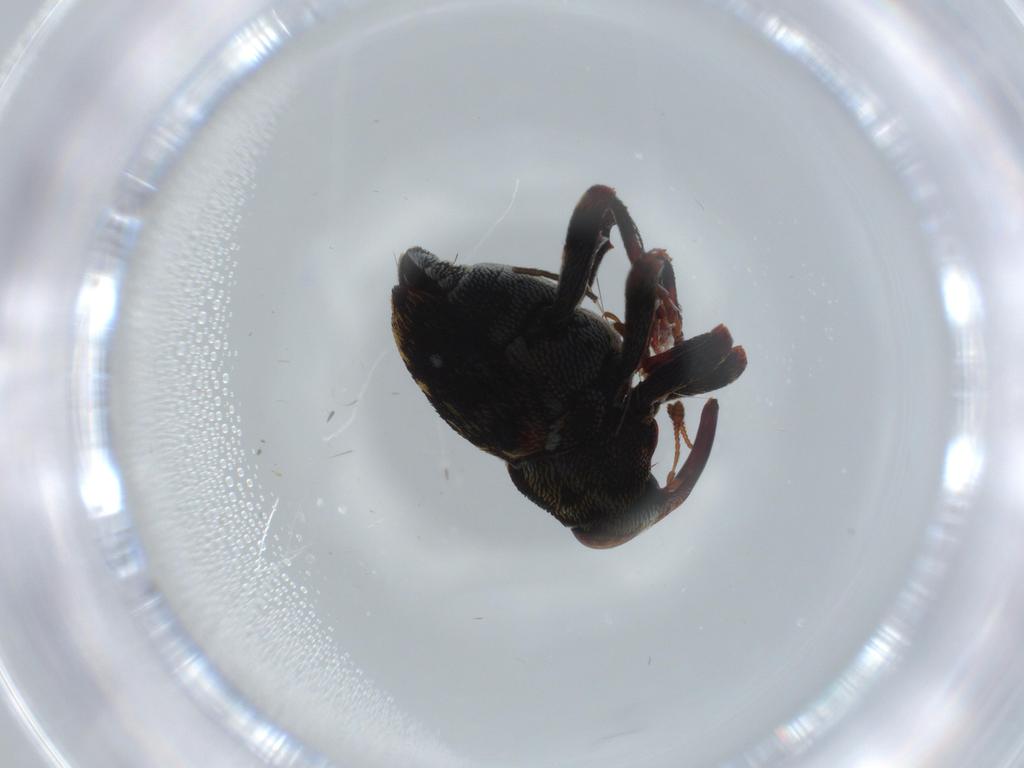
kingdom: Animalia
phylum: Arthropoda
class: Insecta
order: Coleoptera
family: Curculionidae
